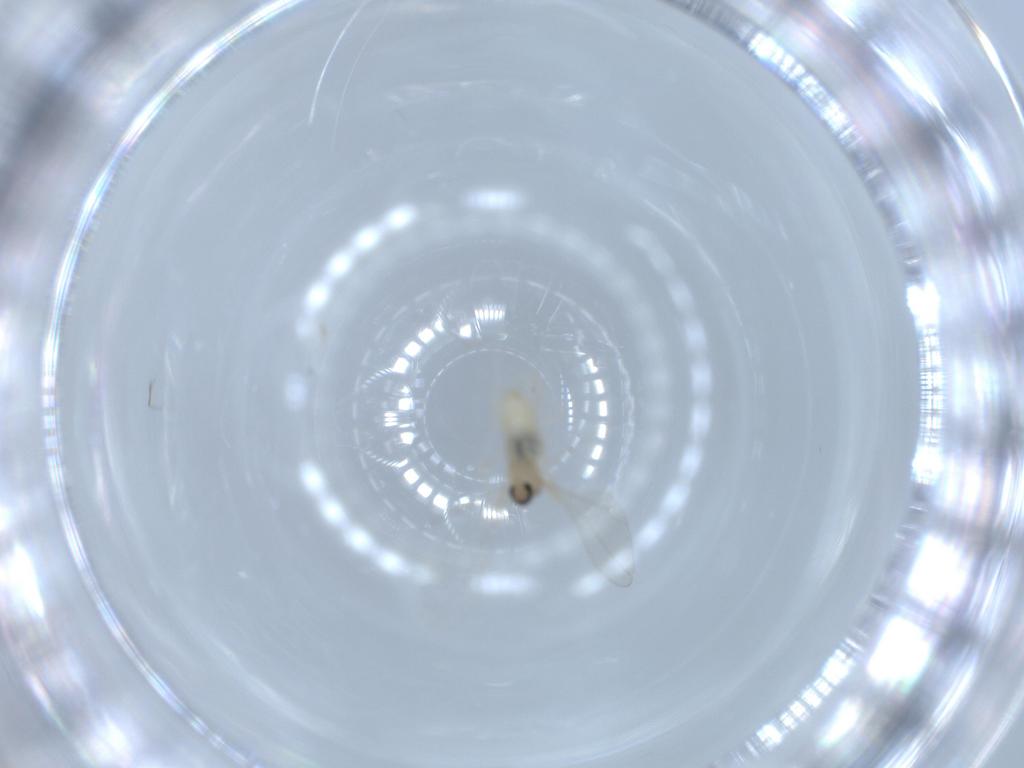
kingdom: Animalia
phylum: Arthropoda
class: Insecta
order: Diptera
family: Cecidomyiidae
